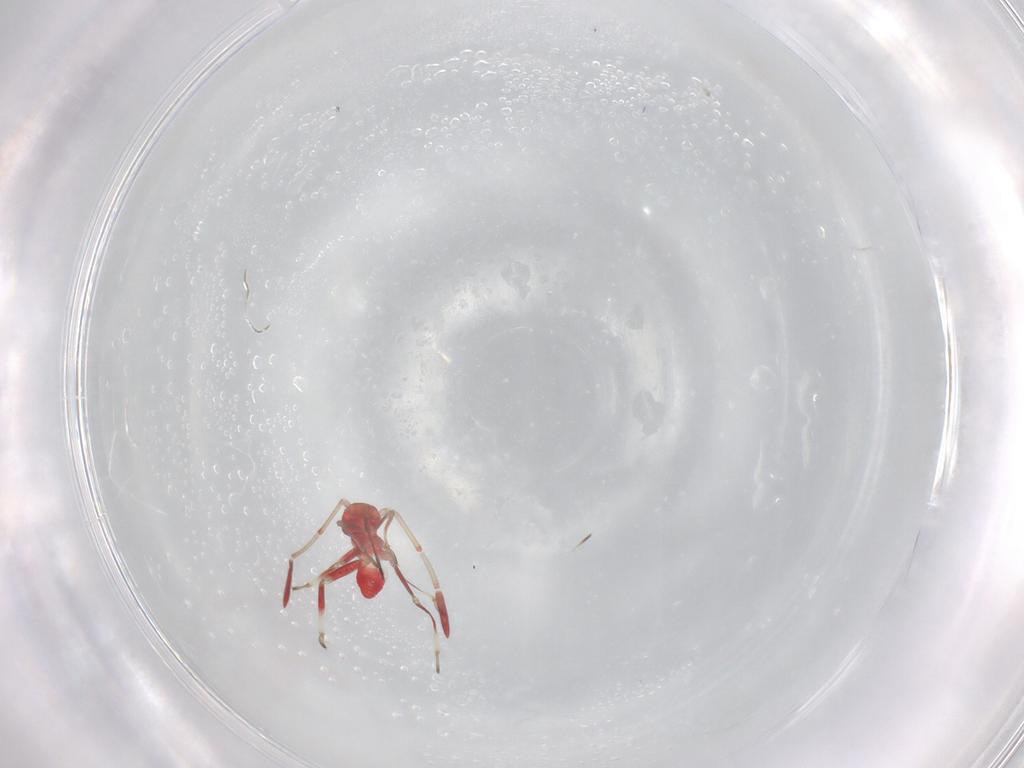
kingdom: Animalia
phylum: Arthropoda
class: Insecta
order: Hemiptera
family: Miridae
